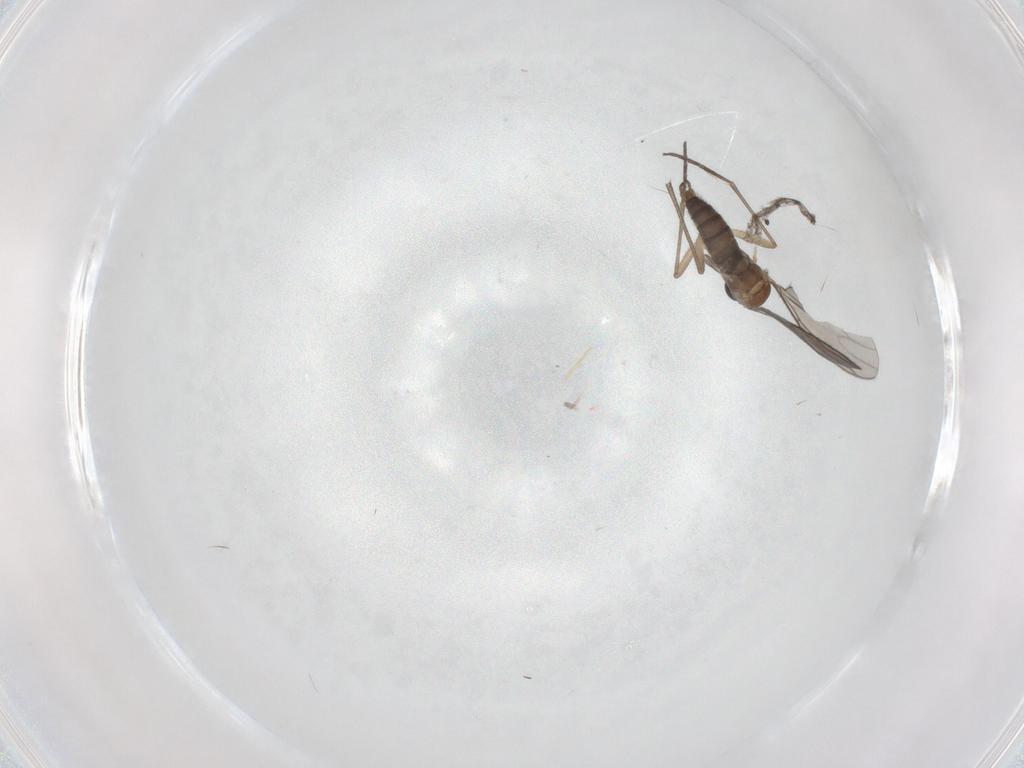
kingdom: Animalia
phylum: Arthropoda
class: Insecta
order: Diptera
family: Sciaridae
